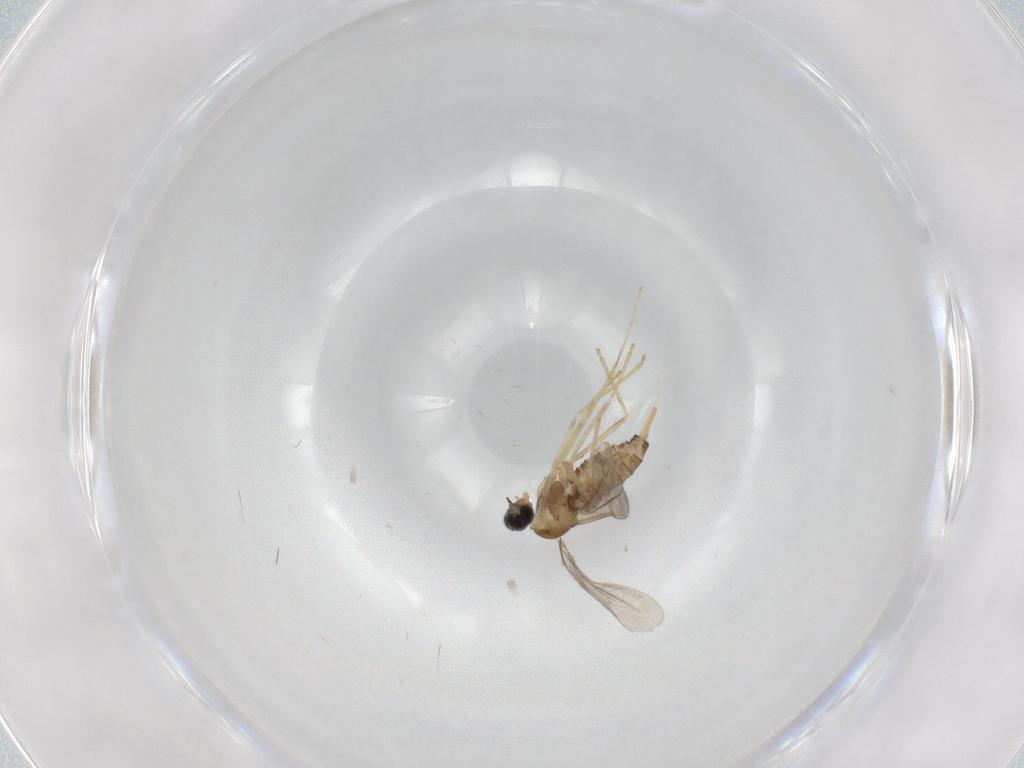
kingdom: Animalia
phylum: Arthropoda
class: Insecta
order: Diptera
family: Cecidomyiidae
